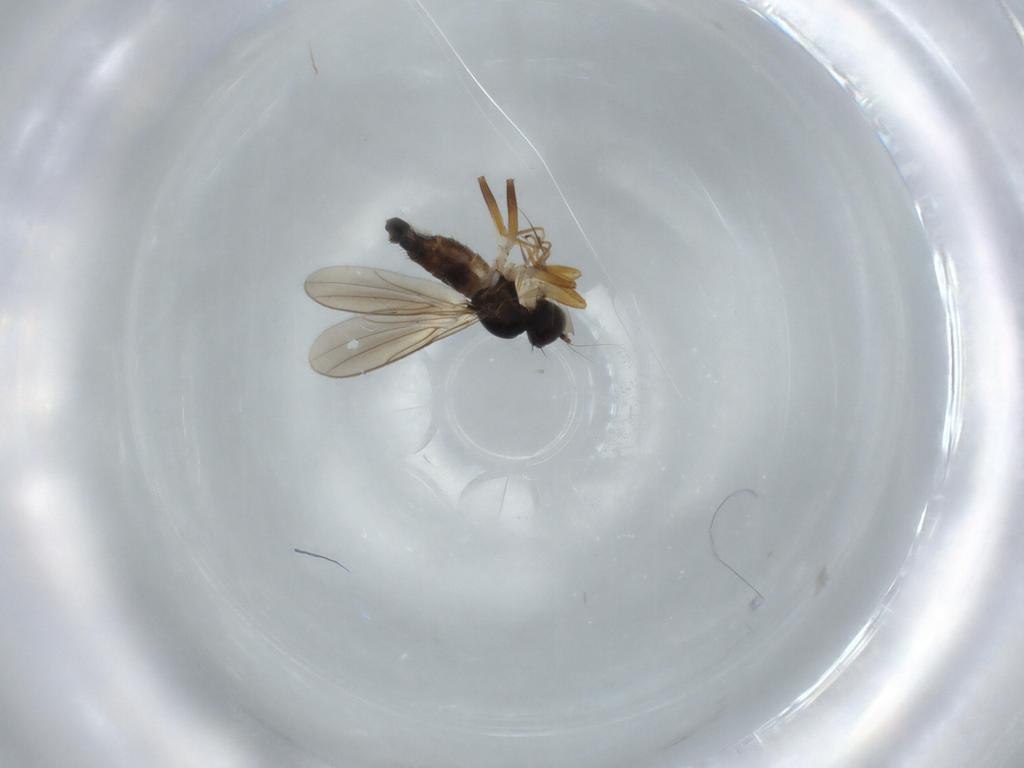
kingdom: Animalia
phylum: Arthropoda
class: Insecta
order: Diptera
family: Hybotidae
